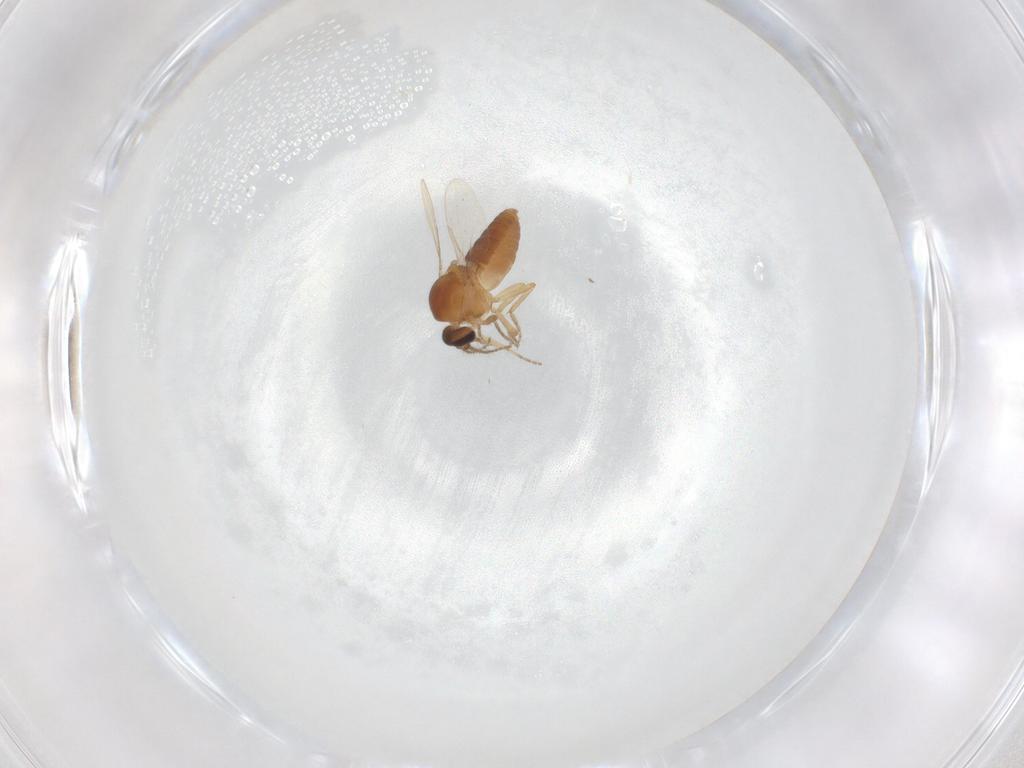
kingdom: Animalia
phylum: Arthropoda
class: Insecta
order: Diptera
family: Ceratopogonidae
